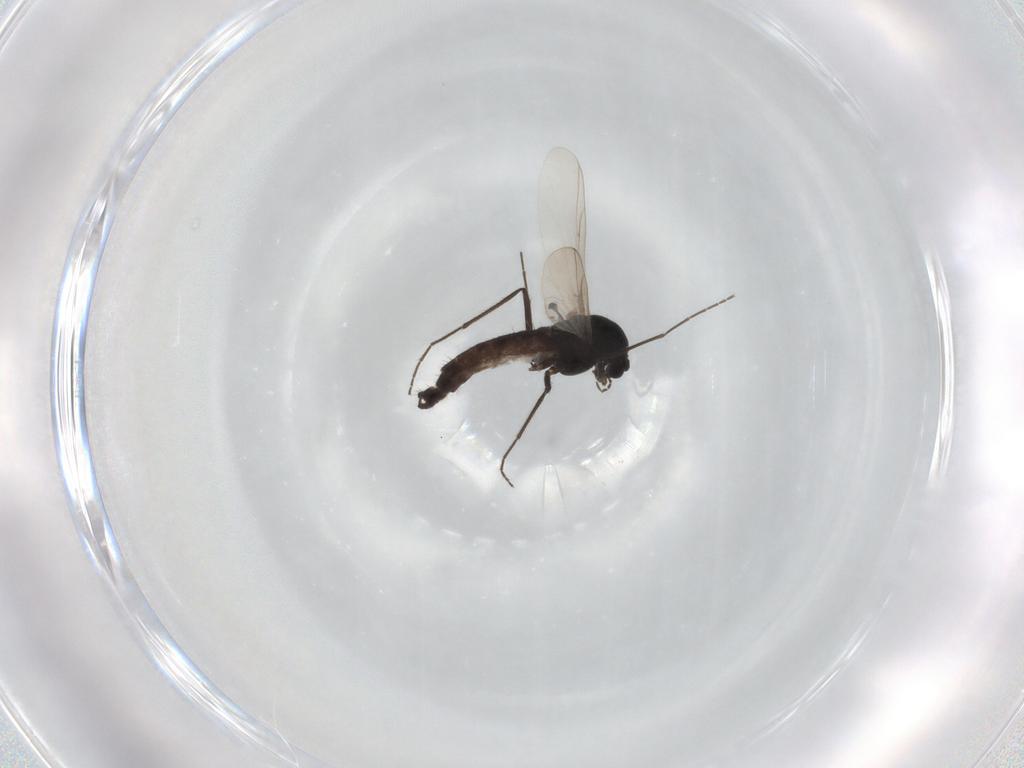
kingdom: Animalia
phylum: Arthropoda
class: Insecta
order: Diptera
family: Chironomidae
